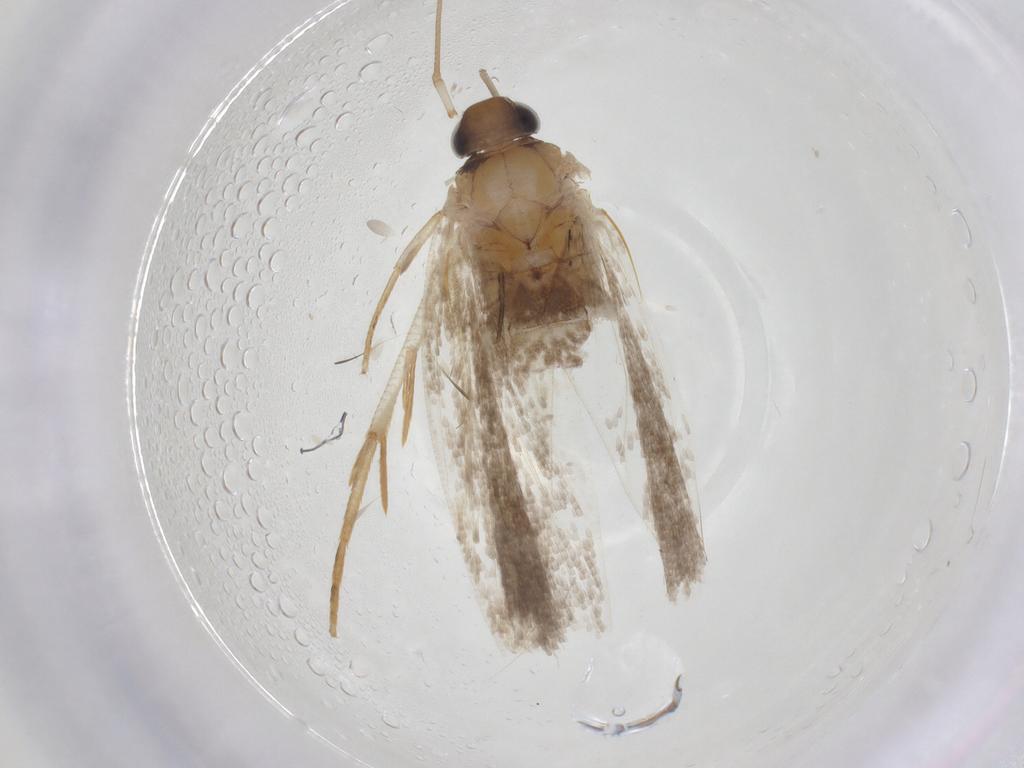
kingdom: Animalia
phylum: Arthropoda
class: Insecta
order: Lepidoptera
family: Gelechiidae
